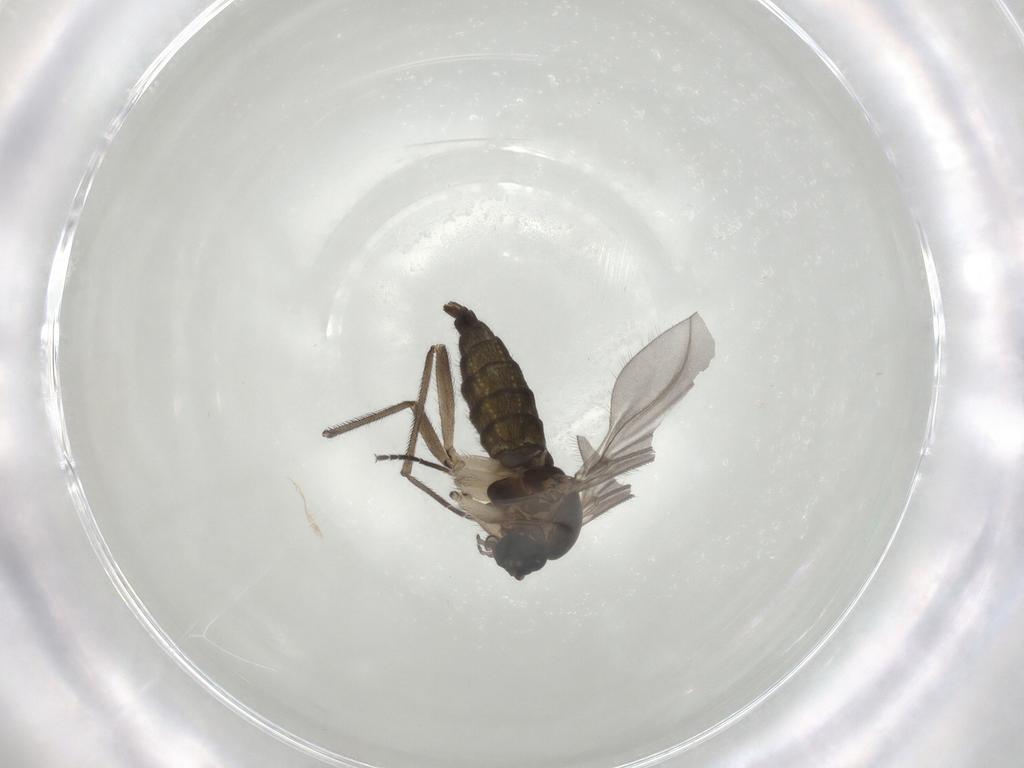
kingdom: Animalia
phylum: Arthropoda
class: Insecta
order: Diptera
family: Sciaridae
